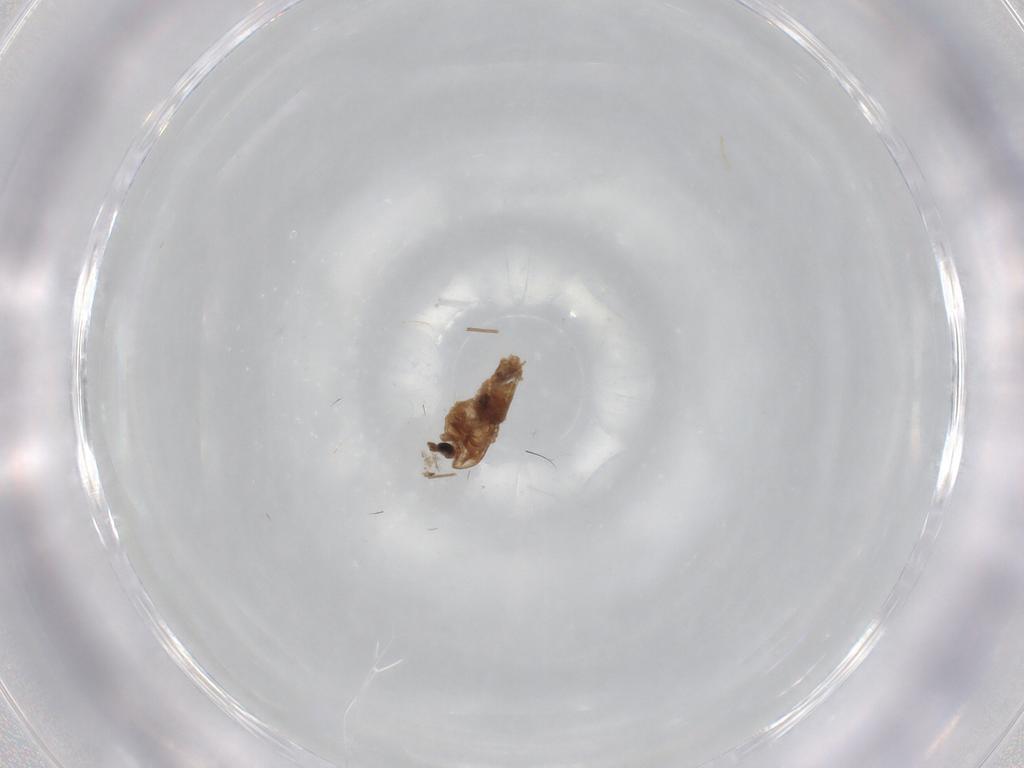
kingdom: Animalia
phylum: Arthropoda
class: Insecta
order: Diptera
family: Cecidomyiidae
